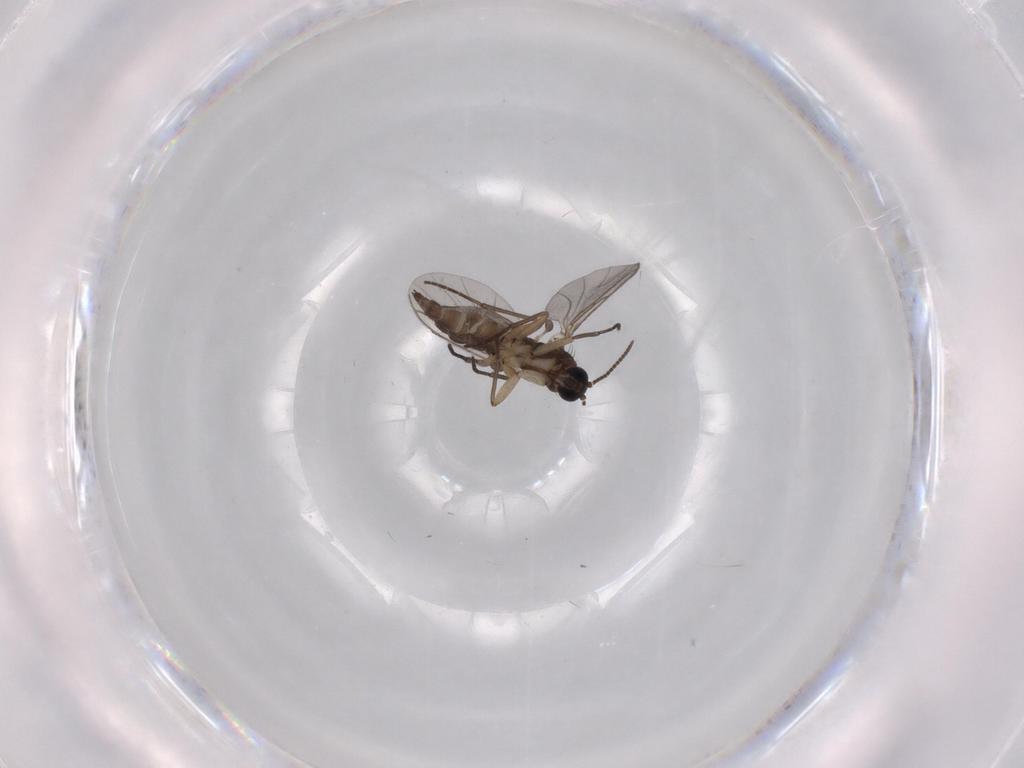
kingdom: Animalia
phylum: Arthropoda
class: Insecta
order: Diptera
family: Sciaridae
